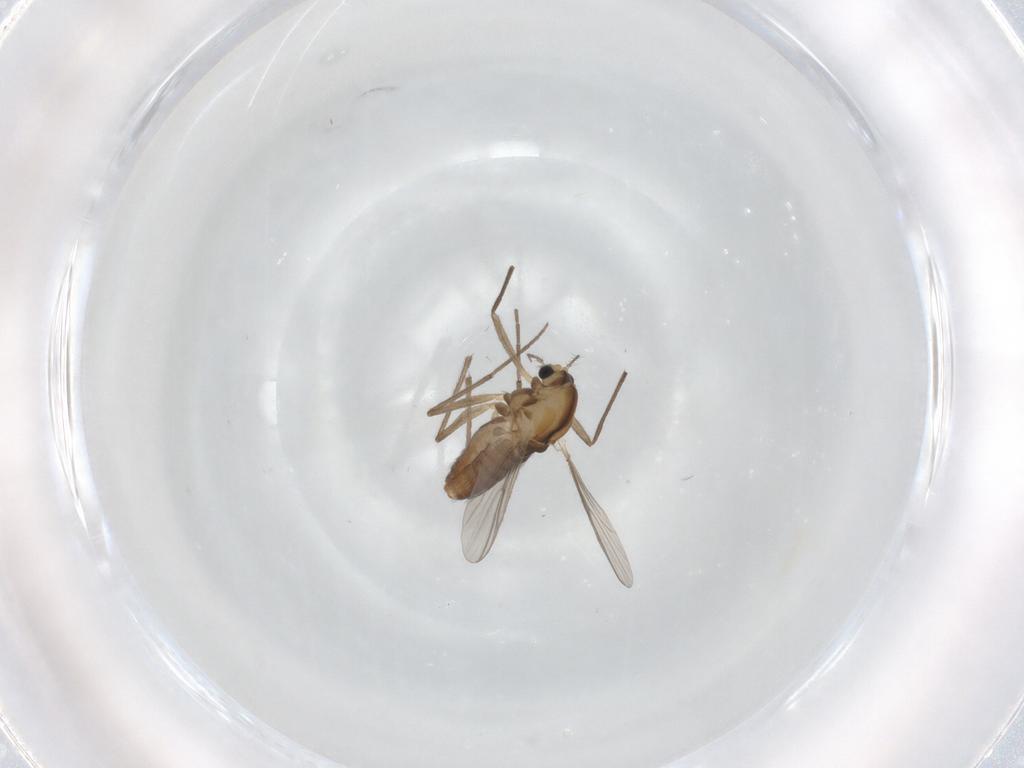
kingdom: Animalia
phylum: Arthropoda
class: Insecta
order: Diptera
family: Chironomidae
